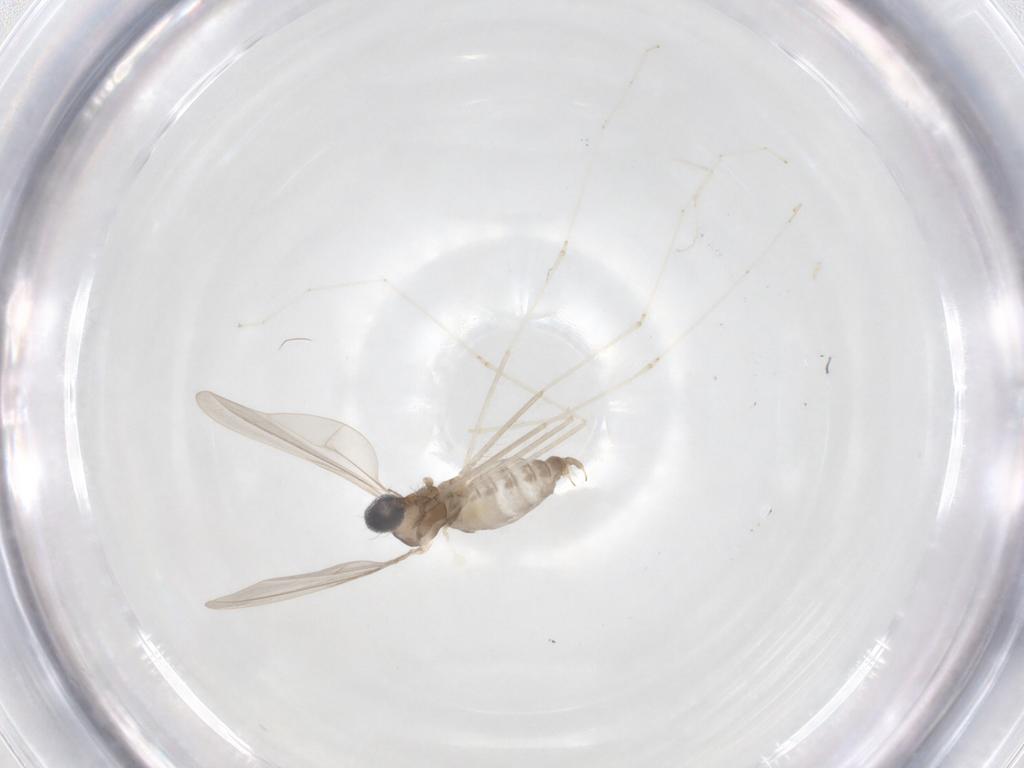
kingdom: Animalia
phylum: Arthropoda
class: Insecta
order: Diptera
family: Cecidomyiidae
